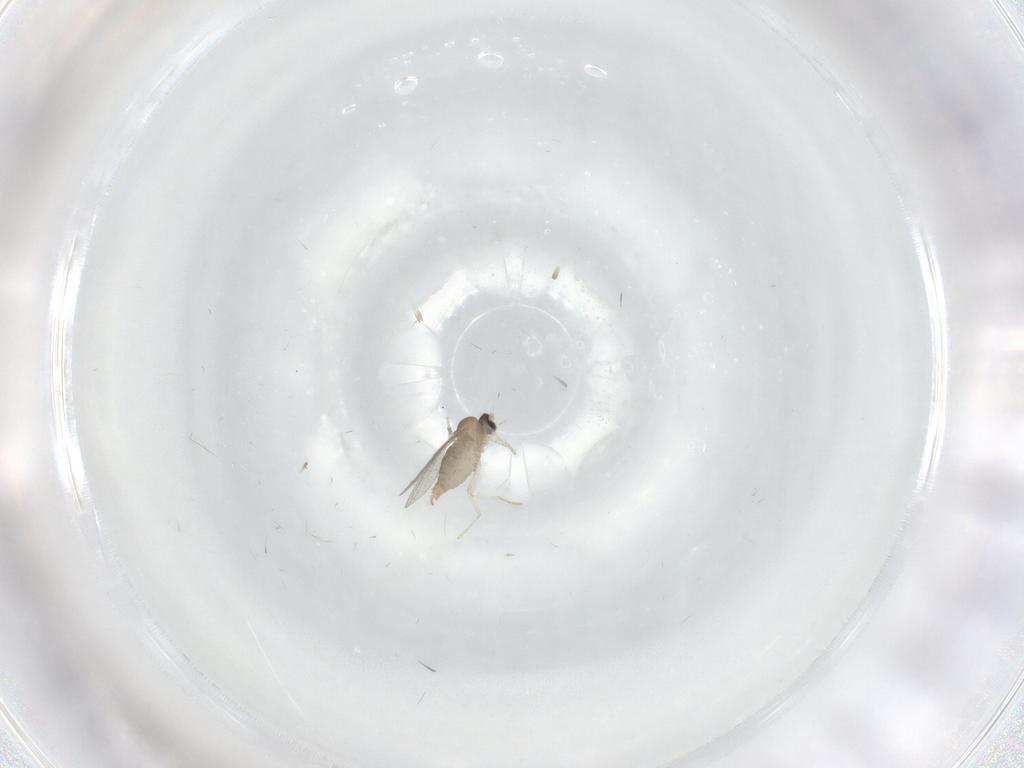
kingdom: Animalia
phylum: Arthropoda
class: Insecta
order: Diptera
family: Cecidomyiidae
